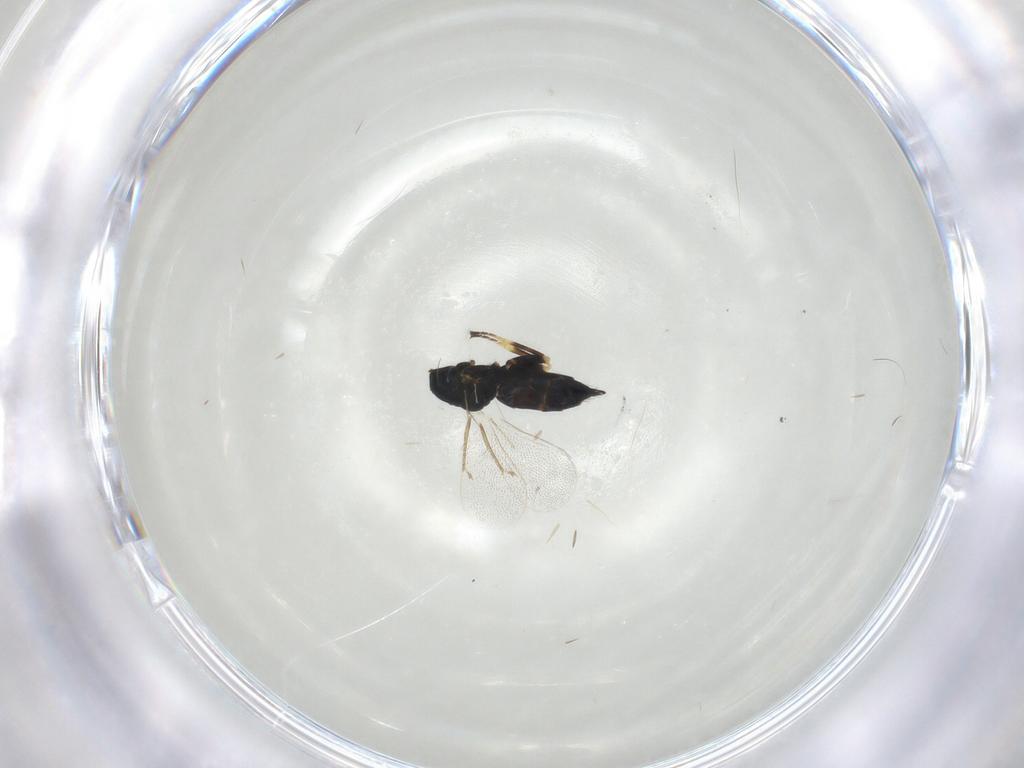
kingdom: Animalia
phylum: Arthropoda
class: Insecta
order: Hymenoptera
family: Eulophidae
